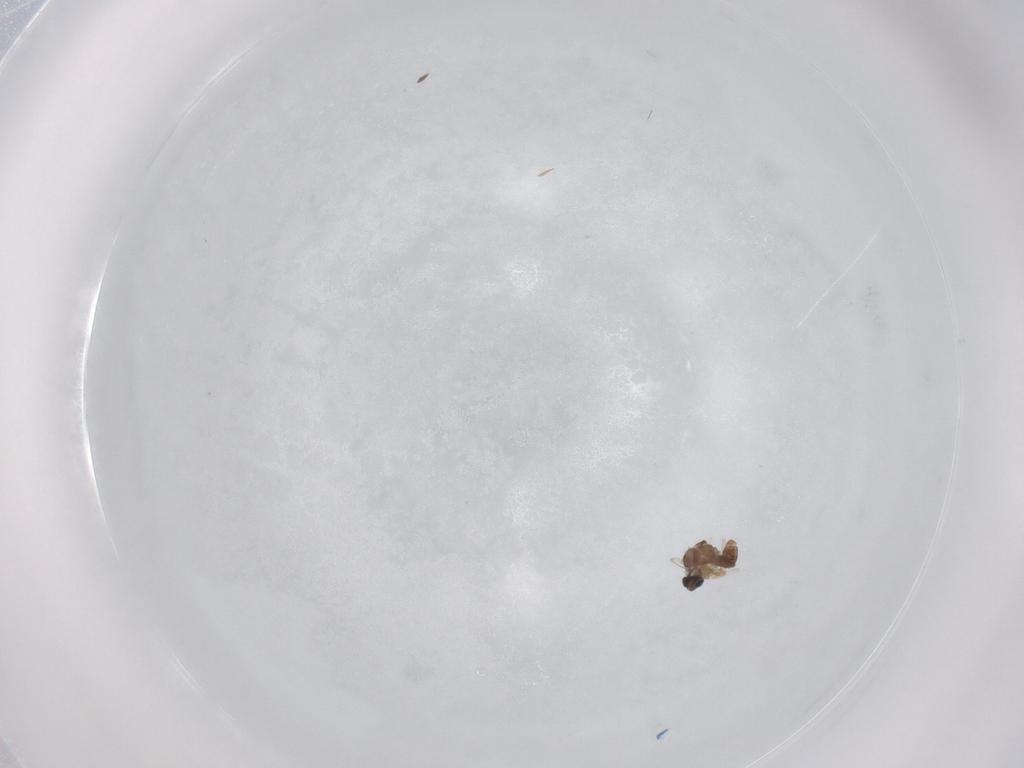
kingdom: Animalia
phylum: Arthropoda
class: Insecta
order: Diptera
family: Cecidomyiidae
